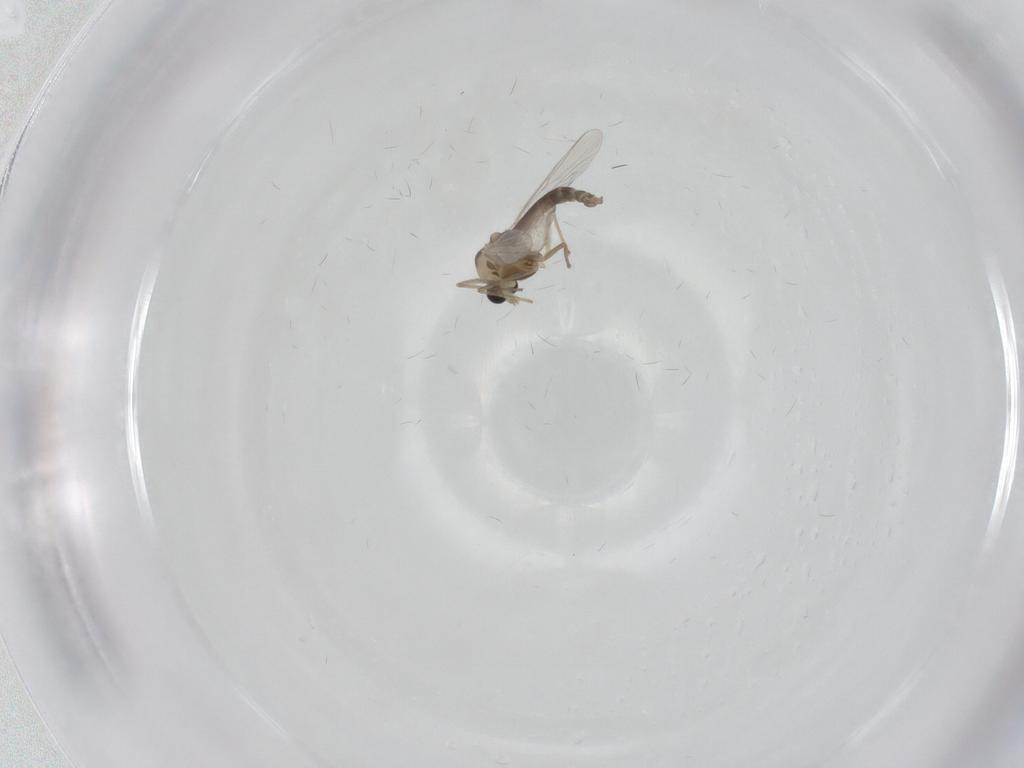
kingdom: Animalia
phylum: Arthropoda
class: Insecta
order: Diptera
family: Chironomidae
